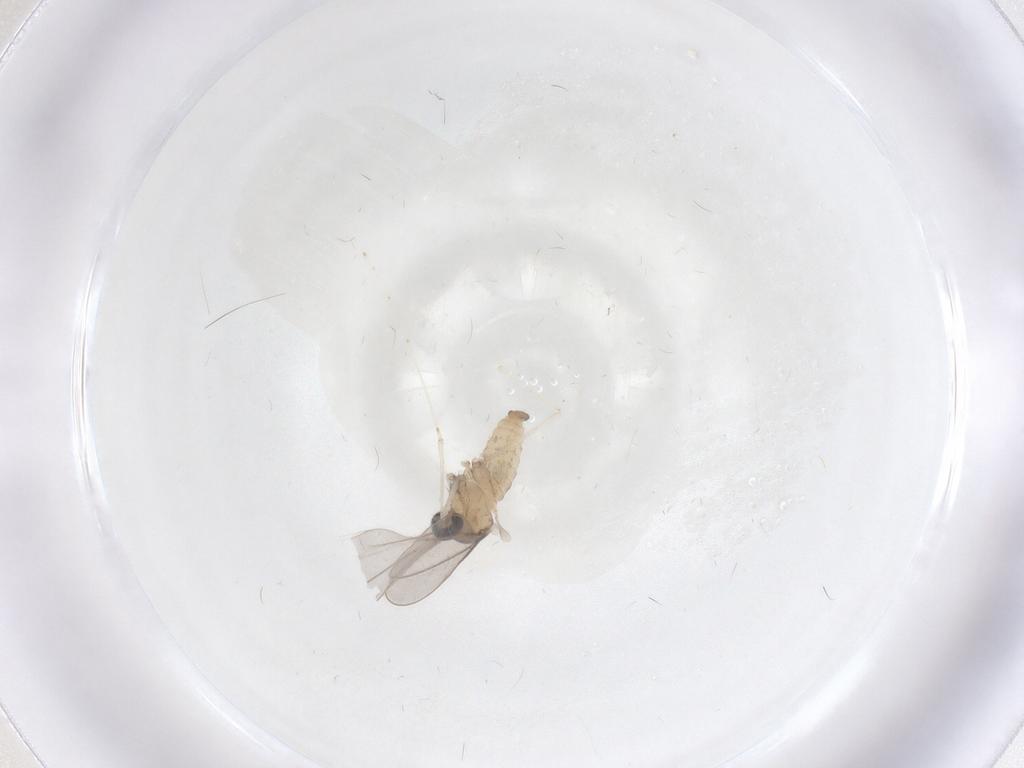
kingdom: Animalia
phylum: Arthropoda
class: Insecta
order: Diptera
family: Cecidomyiidae
